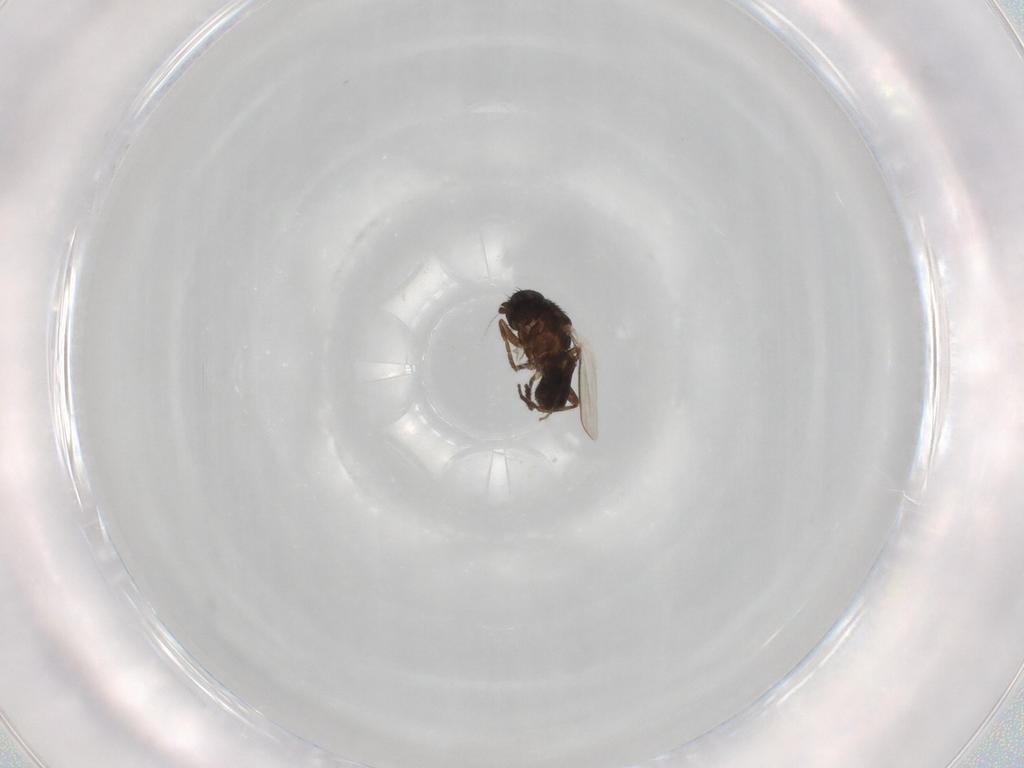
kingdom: Animalia
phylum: Arthropoda
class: Insecta
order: Diptera
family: Sphaeroceridae
